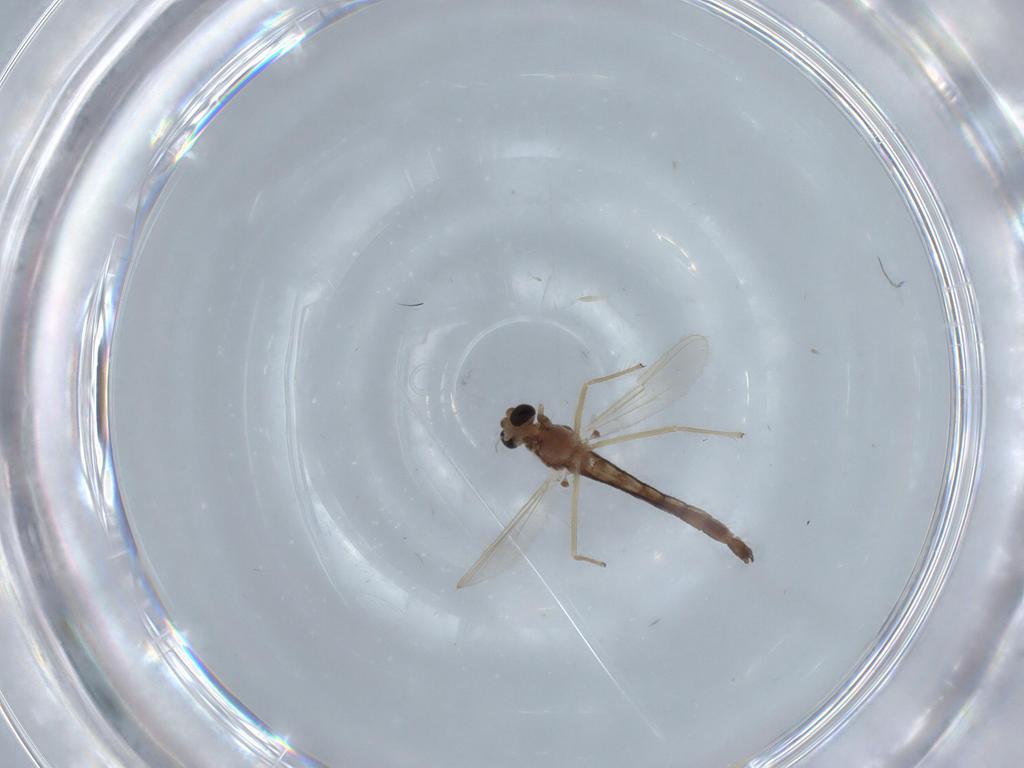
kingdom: Animalia
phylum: Arthropoda
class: Insecta
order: Diptera
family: Chironomidae
